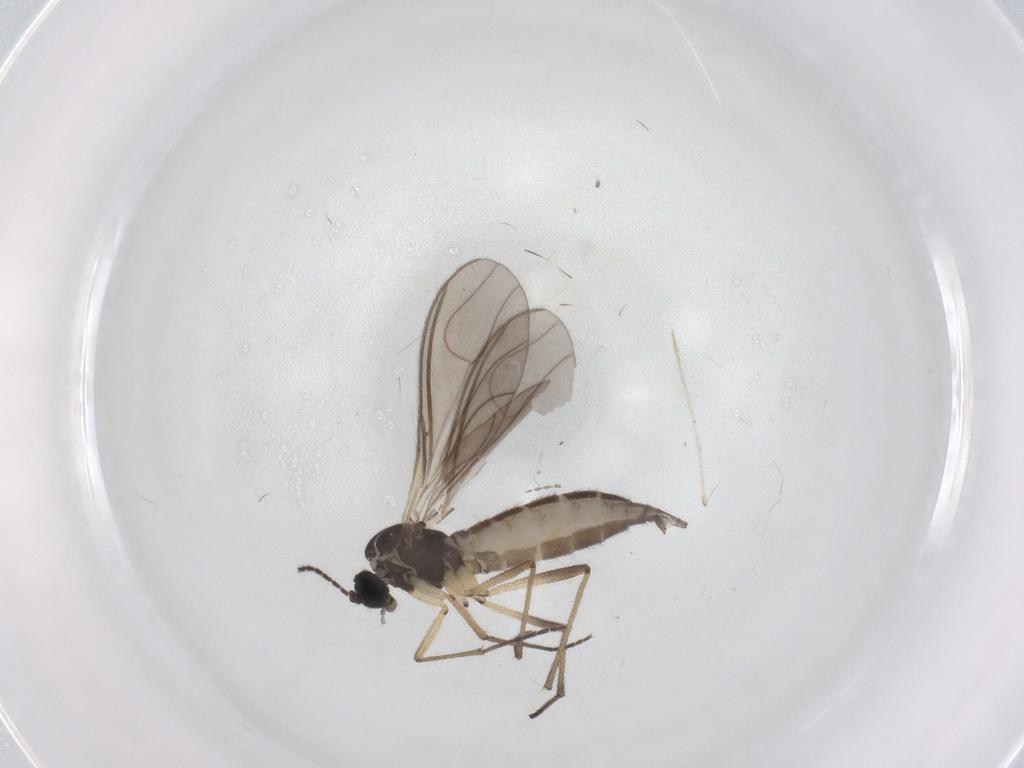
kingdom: Animalia
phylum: Arthropoda
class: Insecta
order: Diptera
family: Sciaridae
